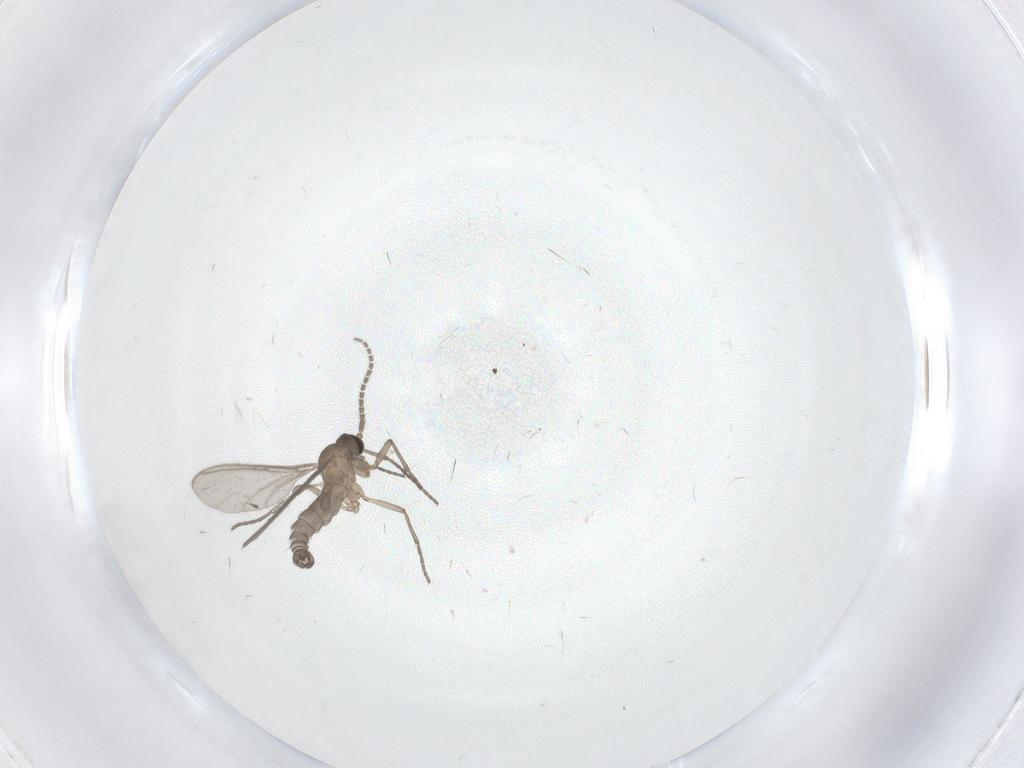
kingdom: Animalia
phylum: Arthropoda
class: Insecta
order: Diptera
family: Sciaridae
